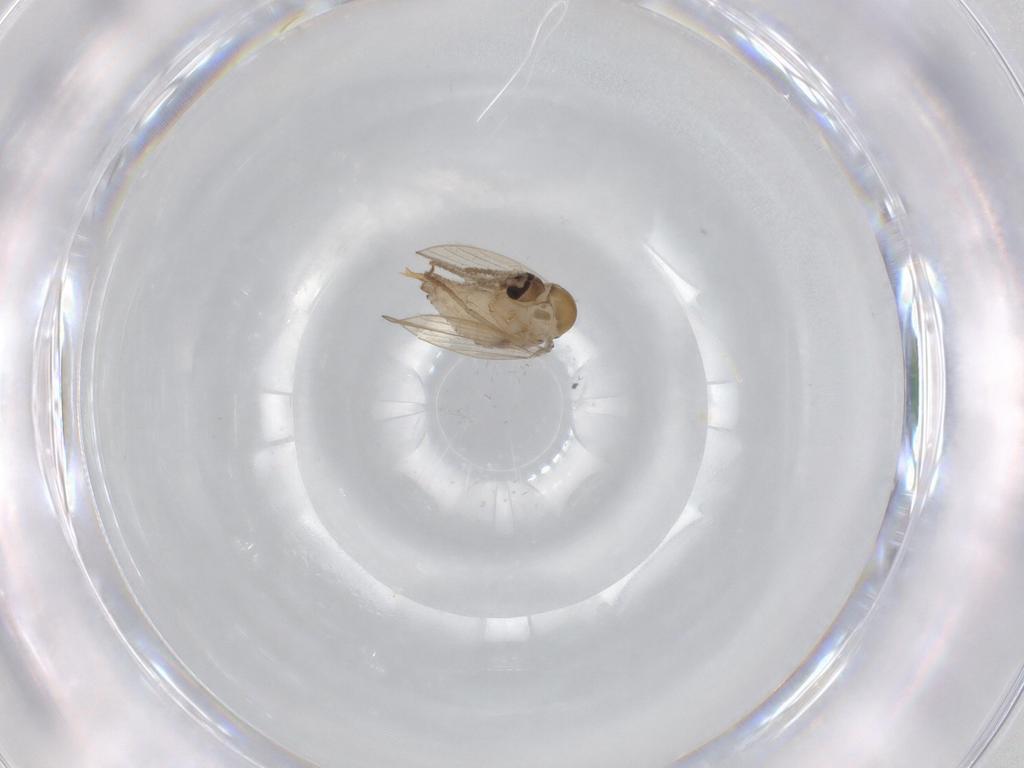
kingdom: Animalia
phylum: Arthropoda
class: Insecta
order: Diptera
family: Psychodidae
